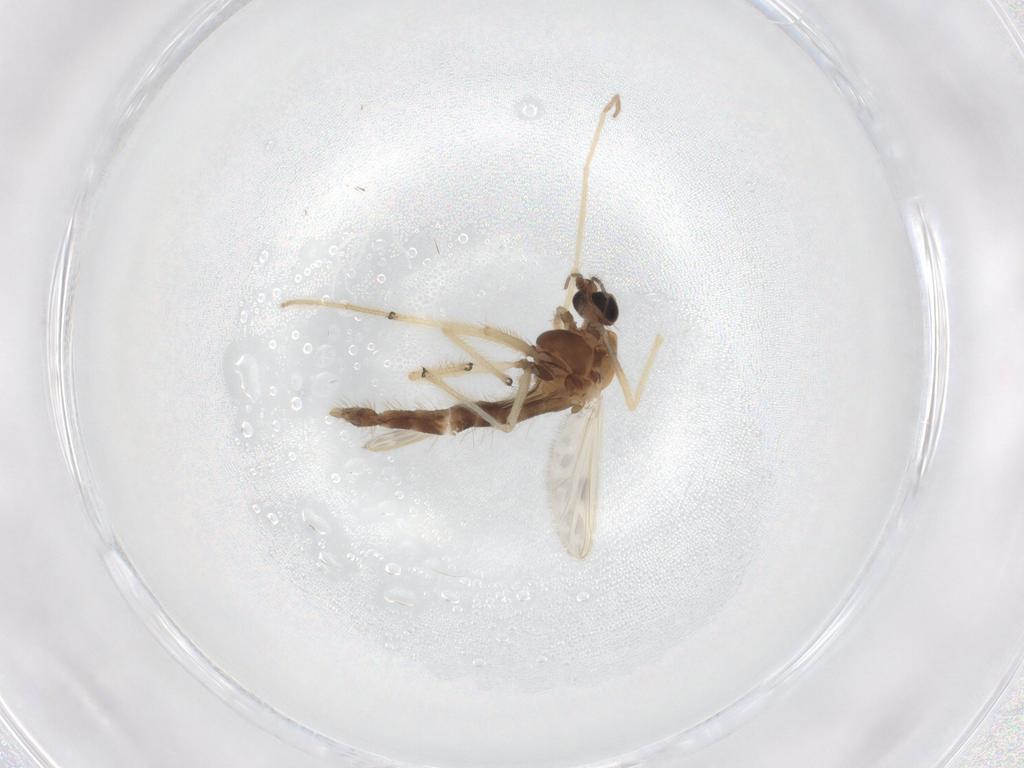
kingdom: Animalia
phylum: Arthropoda
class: Insecta
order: Diptera
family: Chironomidae
